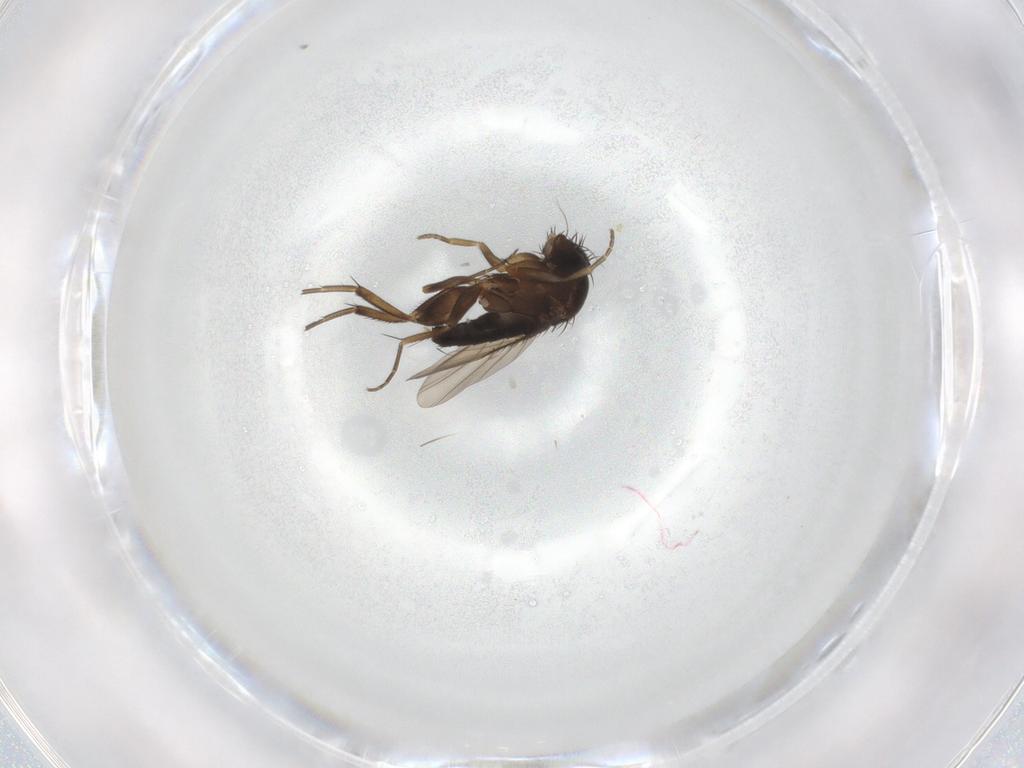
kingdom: Animalia
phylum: Arthropoda
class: Insecta
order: Diptera
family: Phoridae
